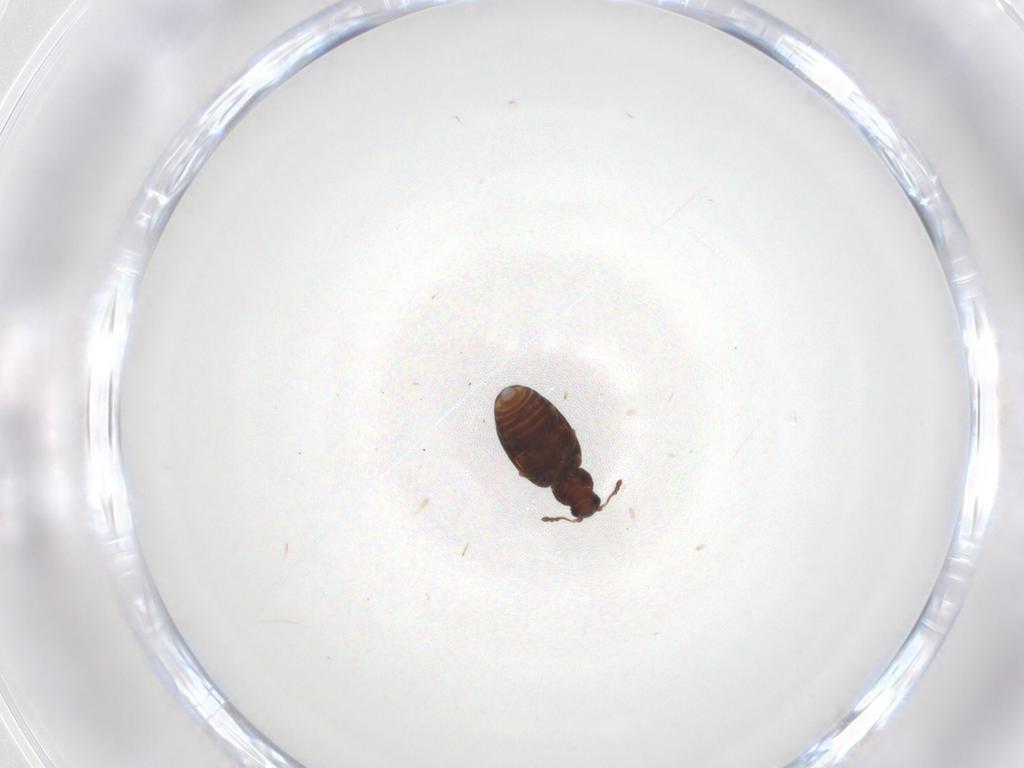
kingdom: Animalia
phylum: Arthropoda
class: Insecta
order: Coleoptera
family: Latridiidae
